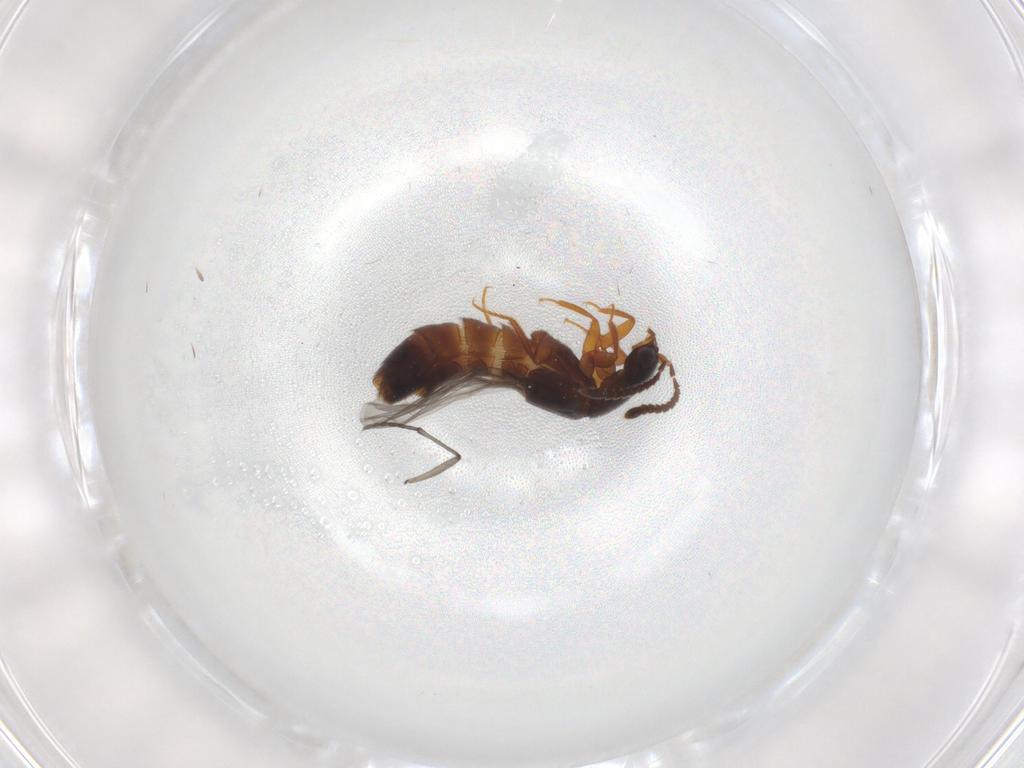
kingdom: Animalia
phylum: Arthropoda
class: Insecta
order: Coleoptera
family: Staphylinidae
